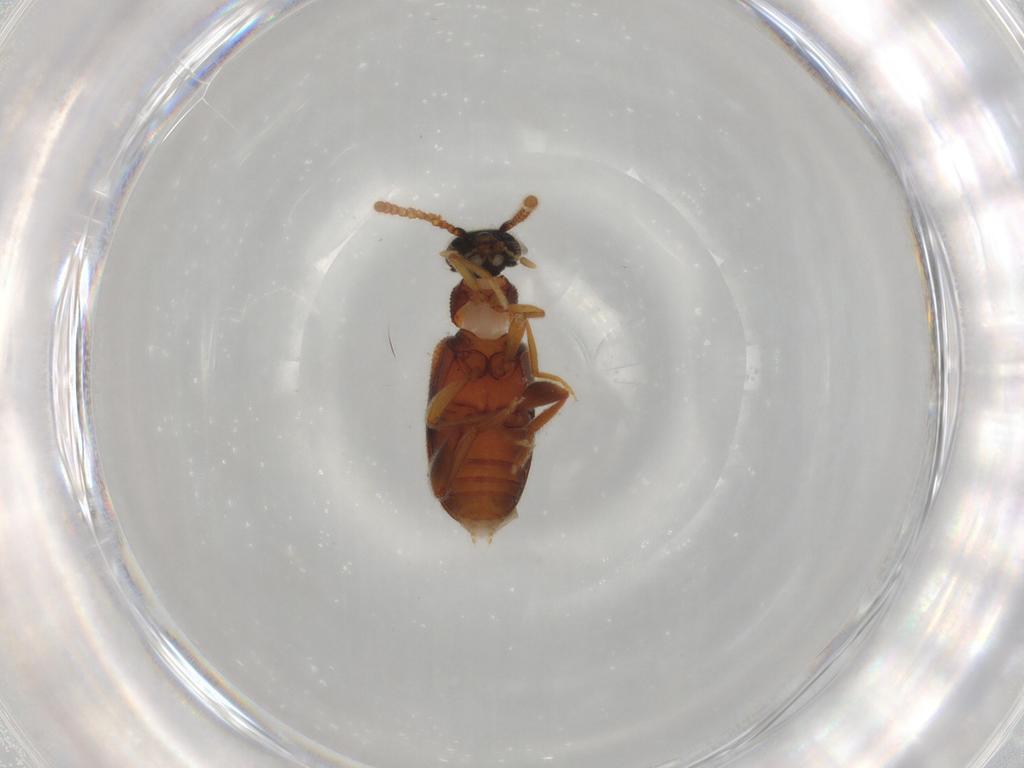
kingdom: Animalia
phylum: Arthropoda
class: Insecta
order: Coleoptera
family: Aderidae
